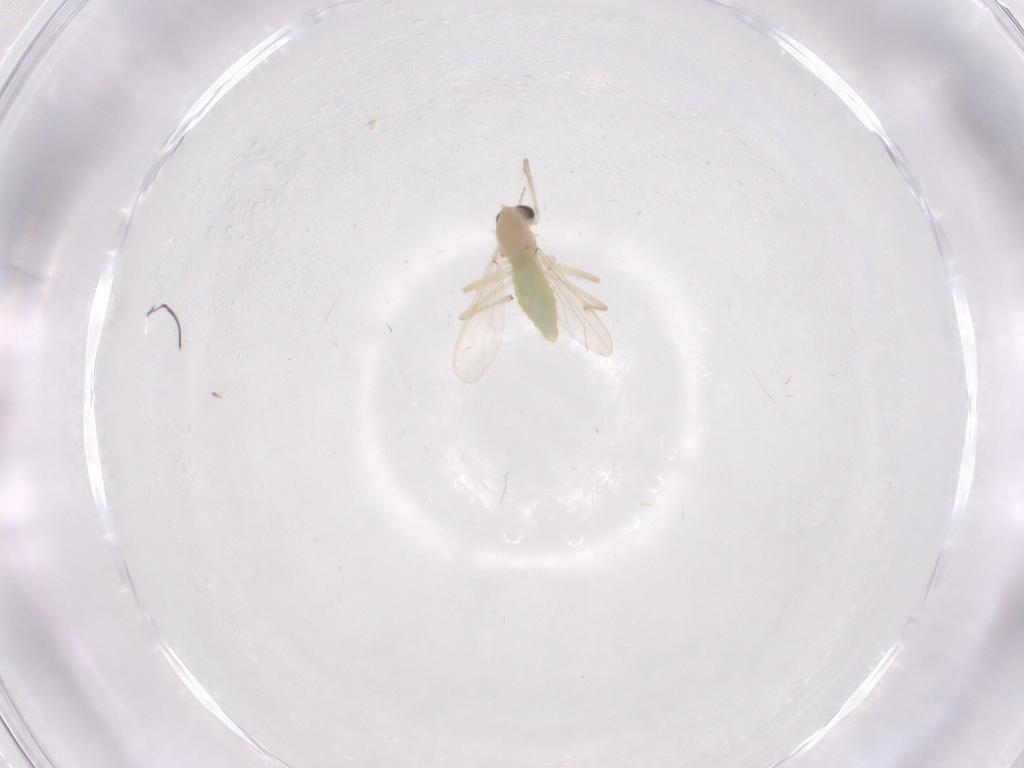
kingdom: Animalia
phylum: Arthropoda
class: Insecta
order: Diptera
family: Chironomidae
